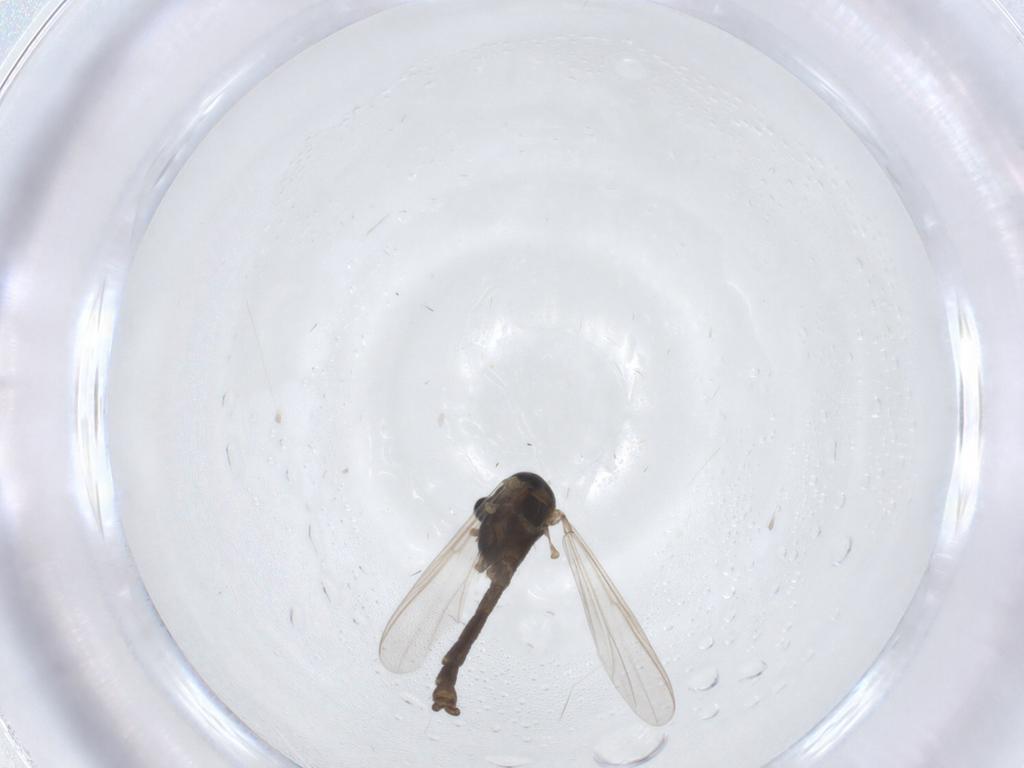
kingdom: Animalia
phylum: Arthropoda
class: Insecta
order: Diptera
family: Chironomidae
